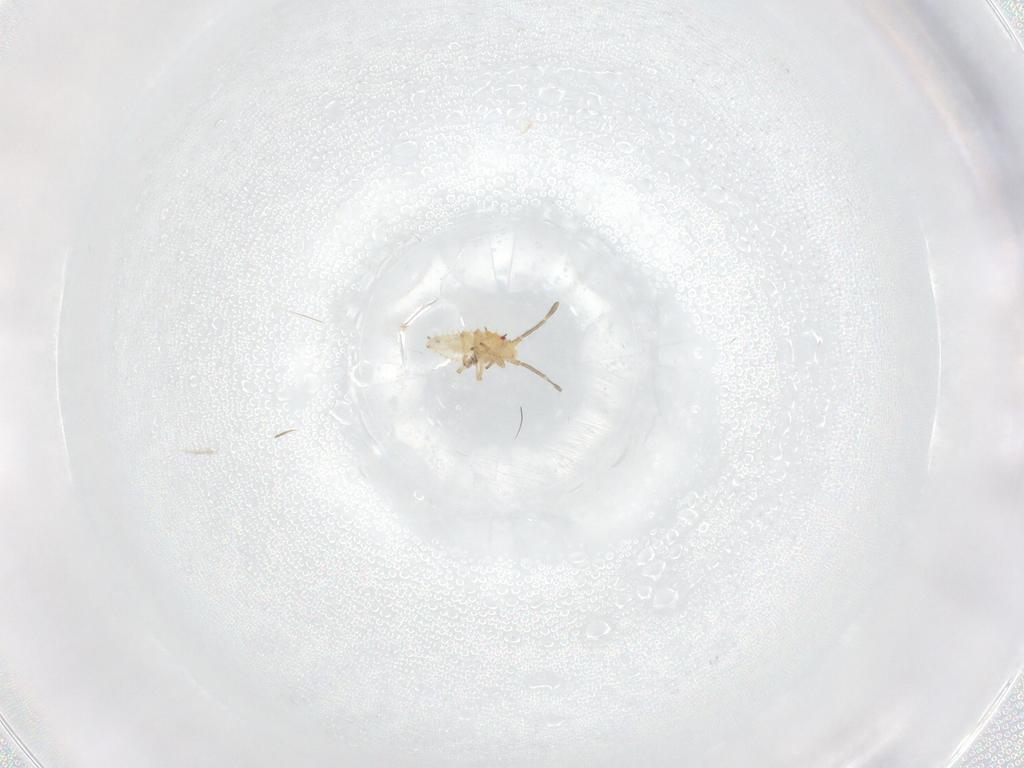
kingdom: Animalia
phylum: Arthropoda
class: Insecta
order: Hemiptera
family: Tingidae
